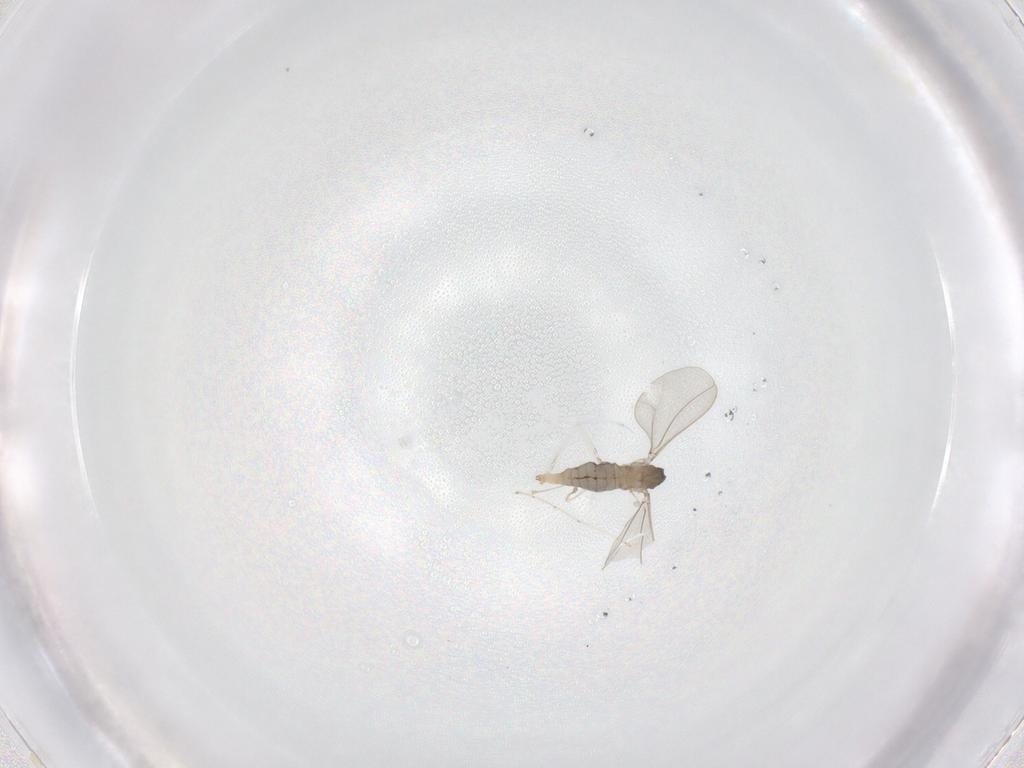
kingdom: Animalia
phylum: Arthropoda
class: Insecta
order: Diptera
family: Cecidomyiidae
